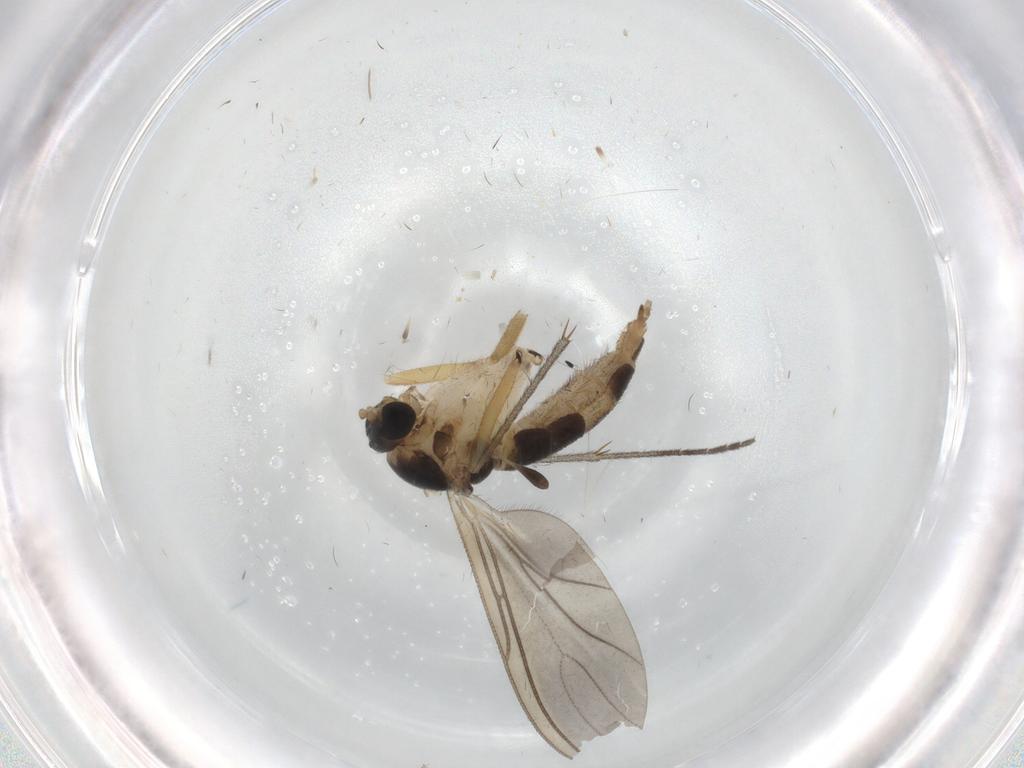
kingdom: Animalia
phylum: Arthropoda
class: Insecta
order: Diptera
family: Sciaridae
